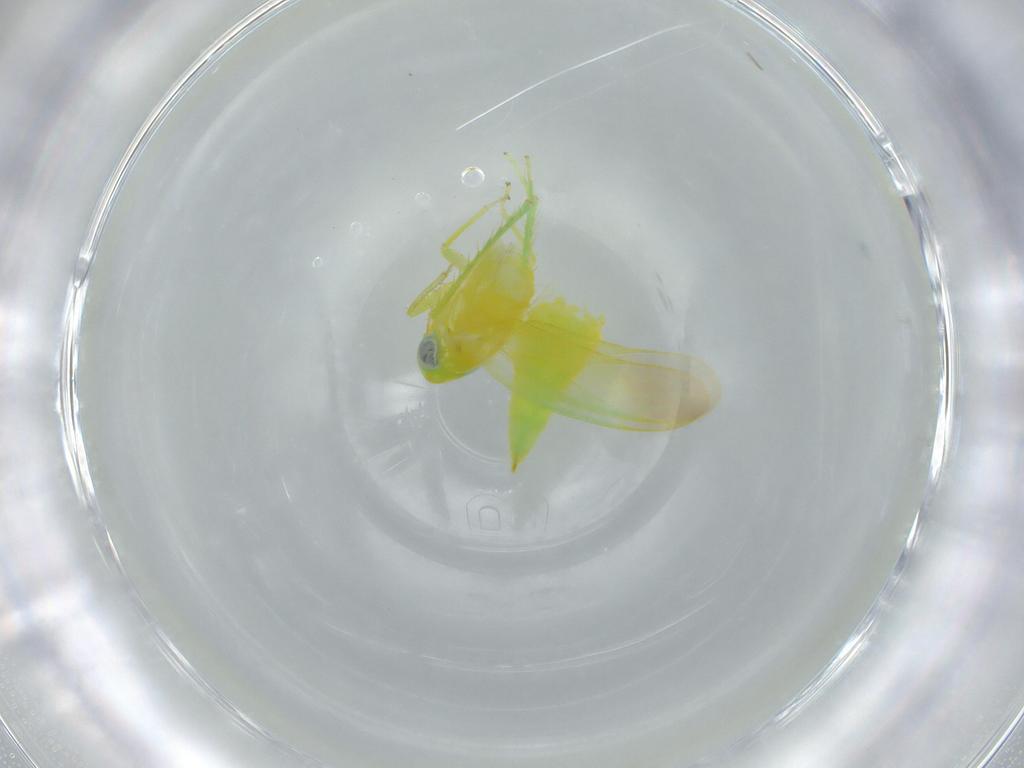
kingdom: Animalia
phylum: Arthropoda
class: Insecta
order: Hemiptera
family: Cicadellidae
